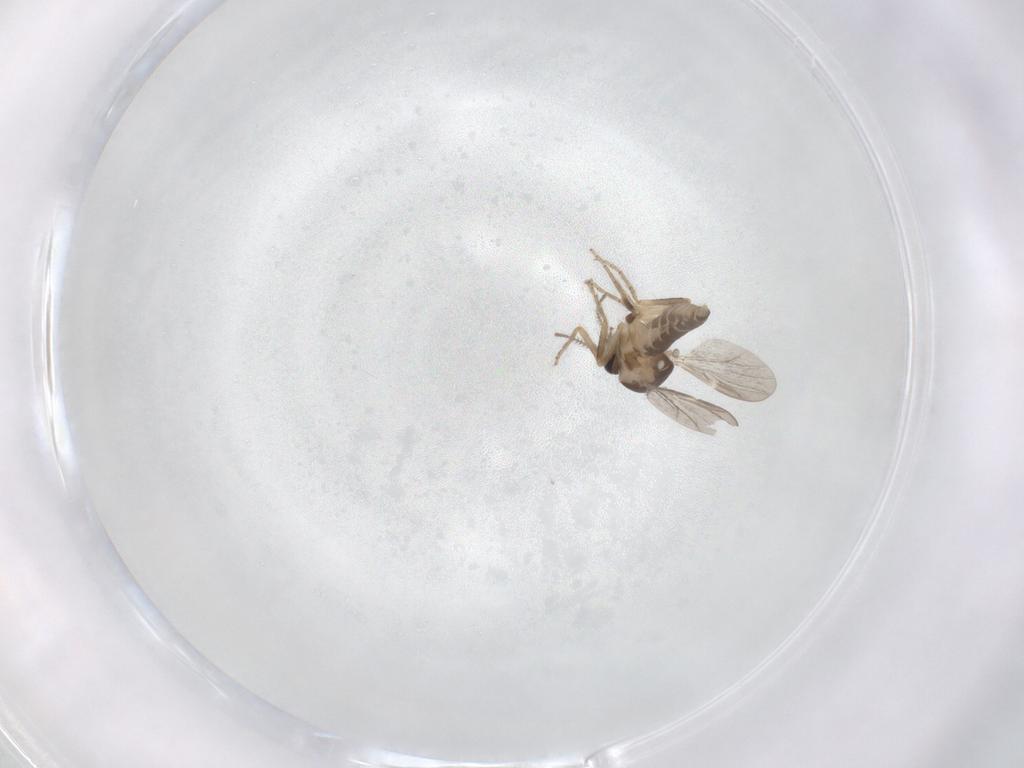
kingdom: Animalia
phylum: Arthropoda
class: Insecta
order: Diptera
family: Ceratopogonidae
